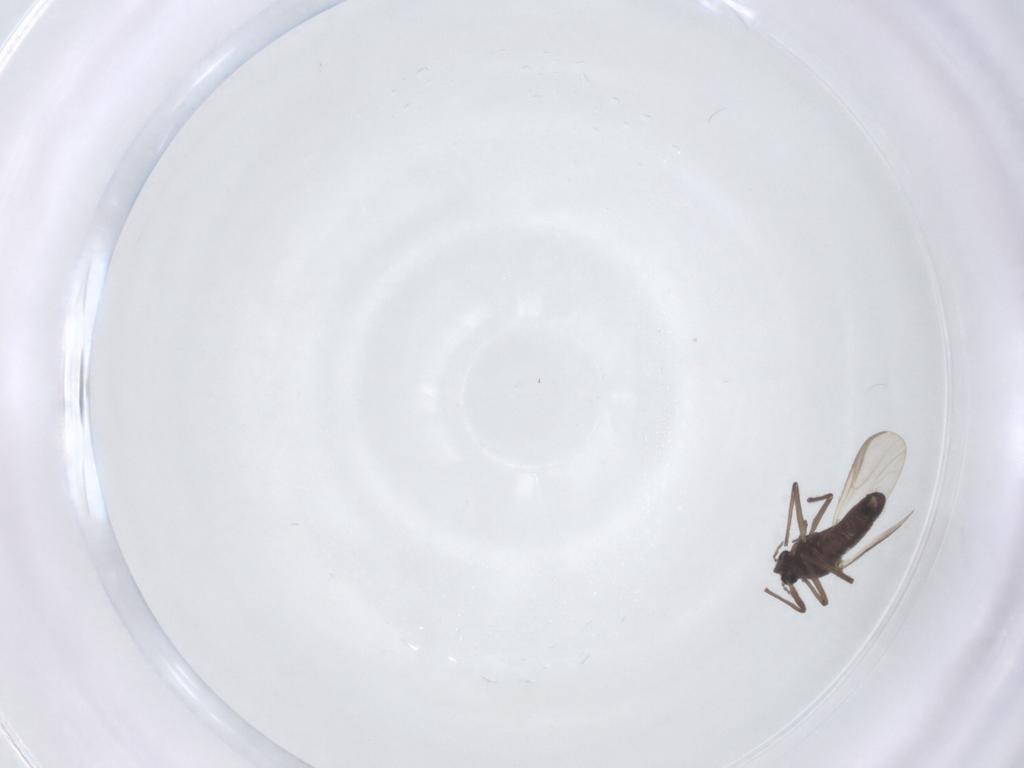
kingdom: Animalia
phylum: Arthropoda
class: Insecta
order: Diptera
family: Chironomidae
